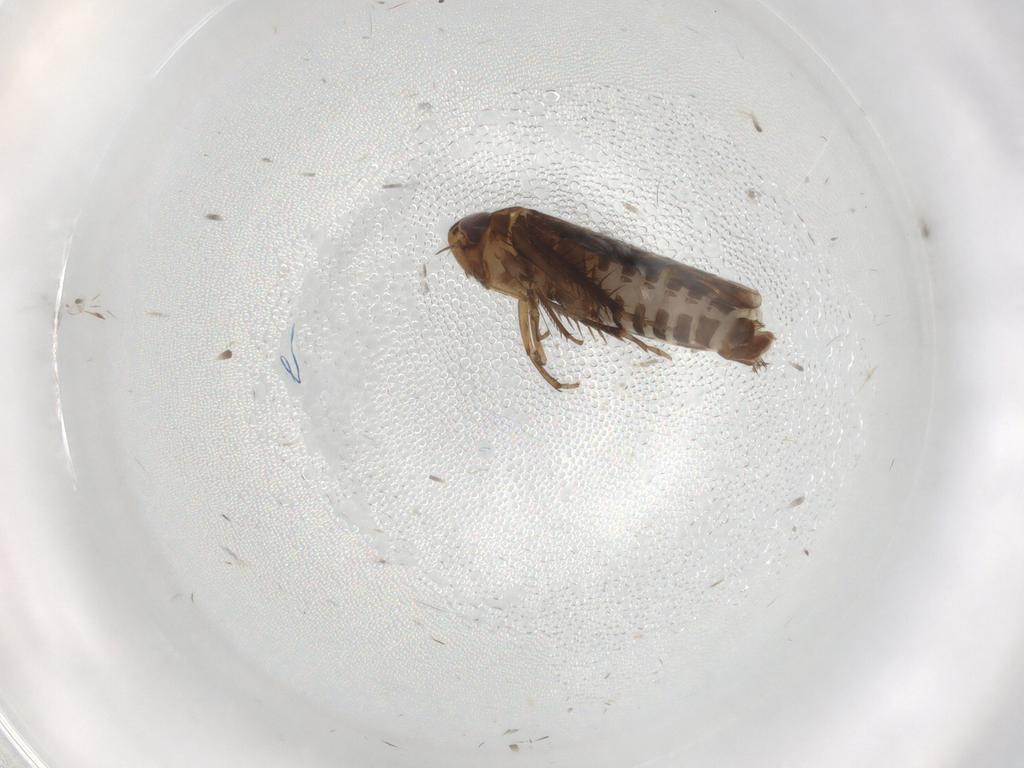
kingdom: Animalia
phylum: Arthropoda
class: Insecta
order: Hemiptera
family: Cicadellidae
